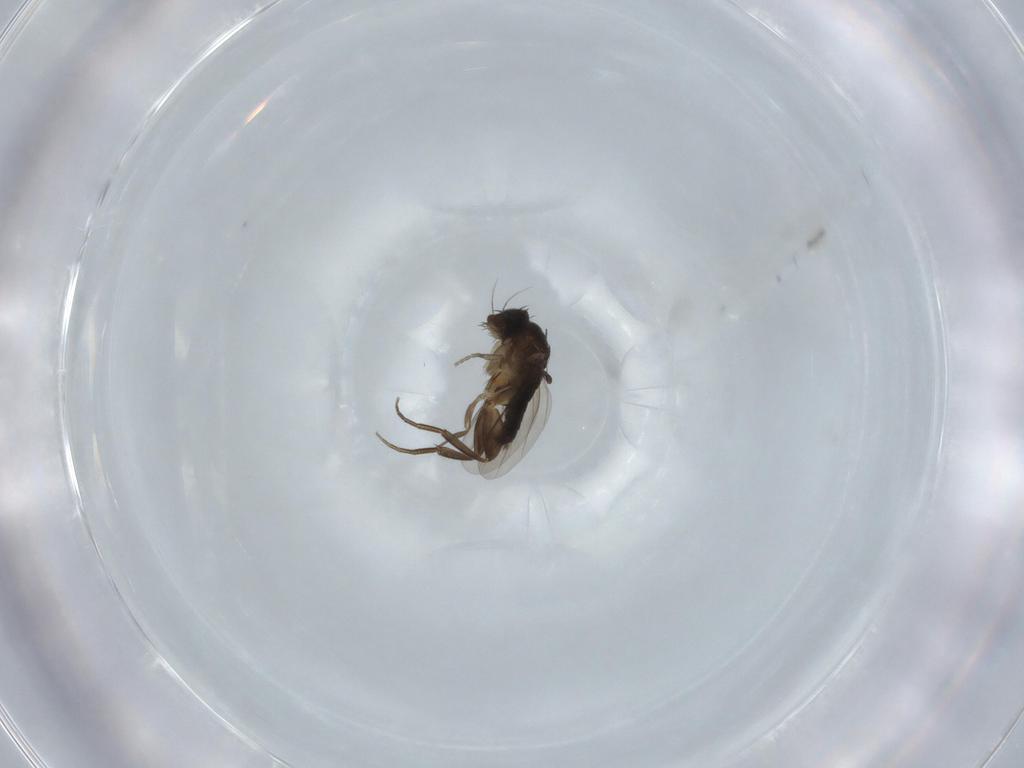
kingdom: Animalia
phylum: Arthropoda
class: Insecta
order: Diptera
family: Phoridae
